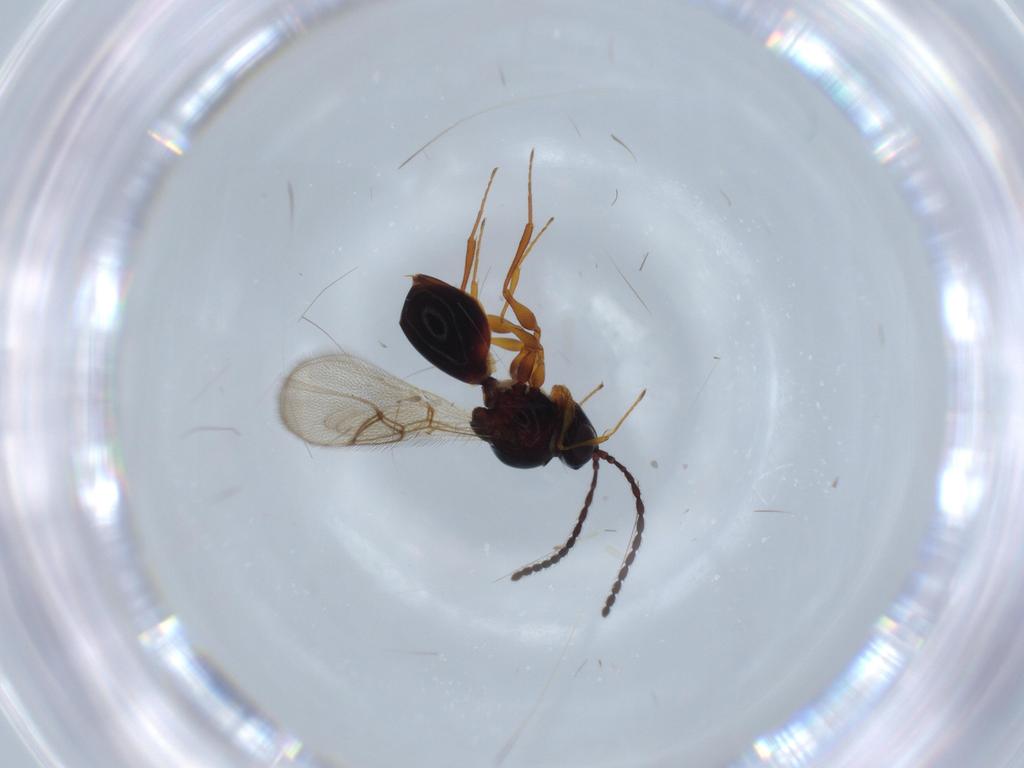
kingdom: Animalia
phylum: Arthropoda
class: Insecta
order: Hymenoptera
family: Figitidae
